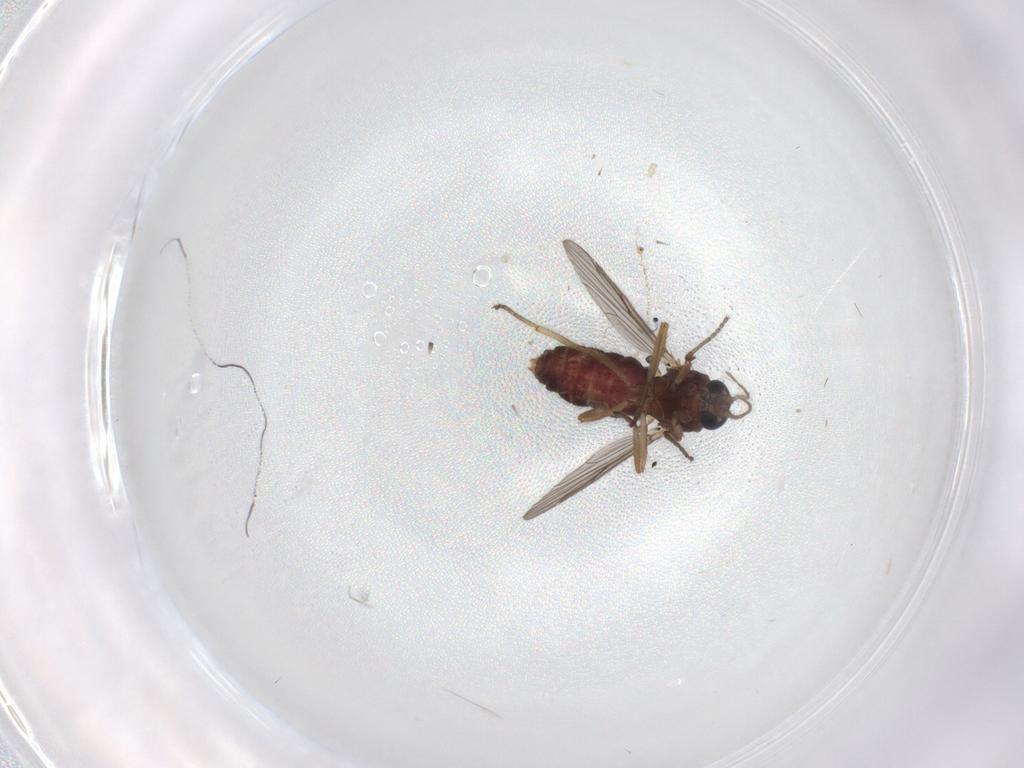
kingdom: Animalia
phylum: Arthropoda
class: Insecta
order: Diptera
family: Ceratopogonidae
